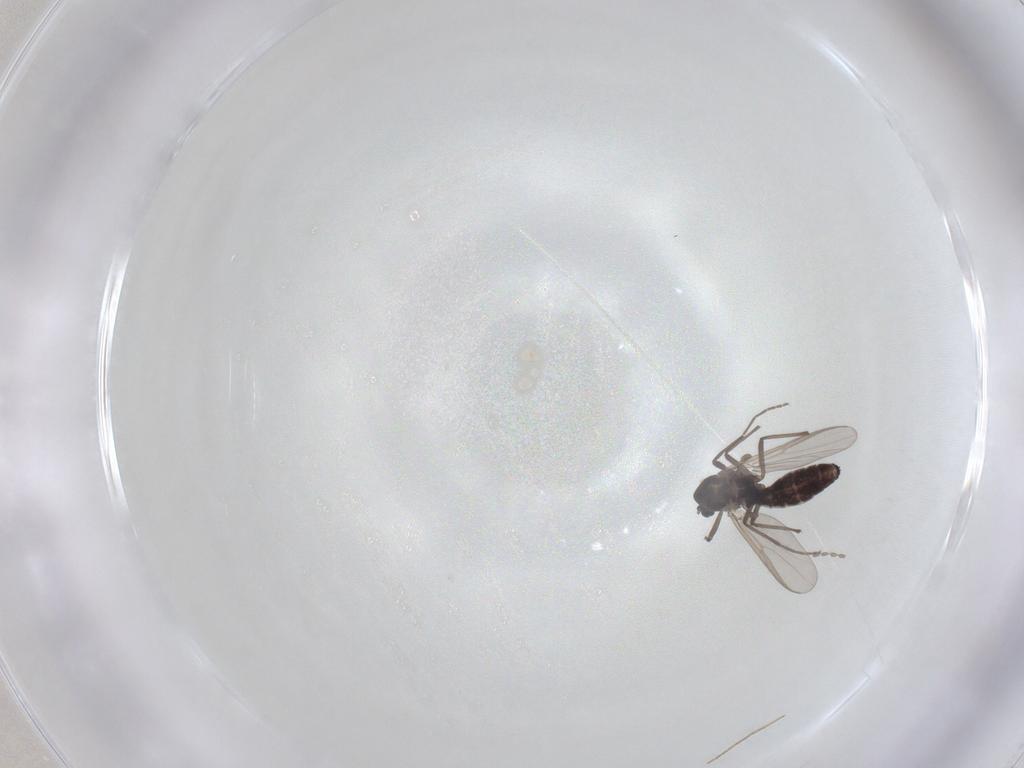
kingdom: Animalia
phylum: Arthropoda
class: Insecta
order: Diptera
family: Cecidomyiidae
